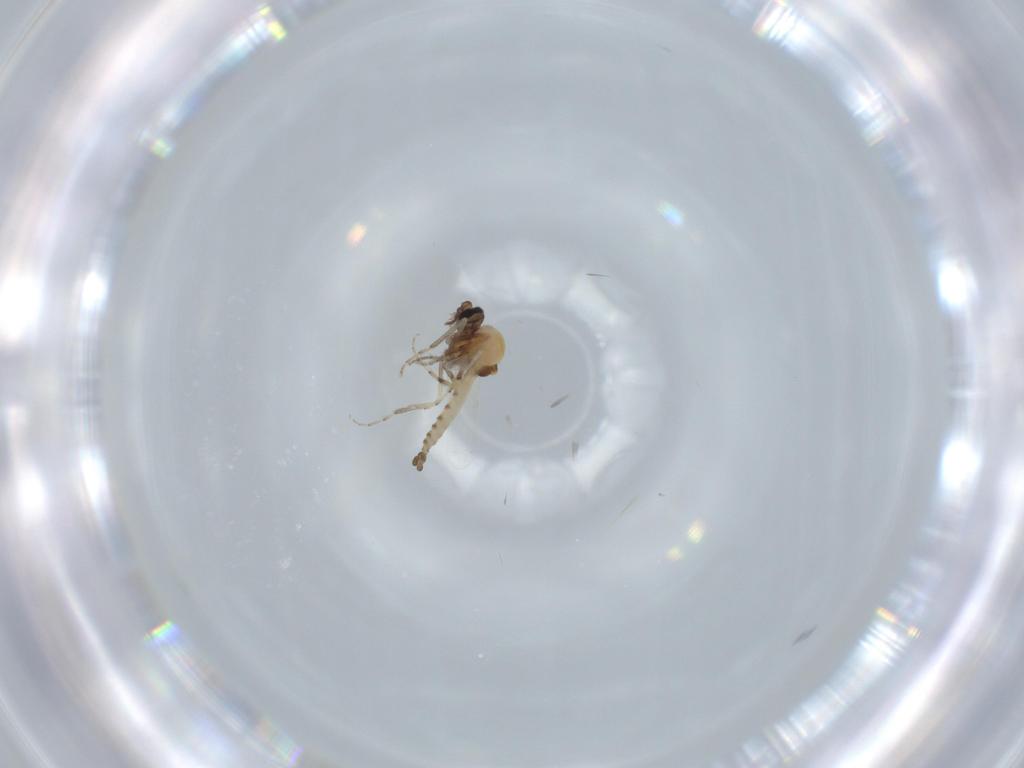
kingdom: Animalia
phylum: Arthropoda
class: Insecta
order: Diptera
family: Ceratopogonidae
